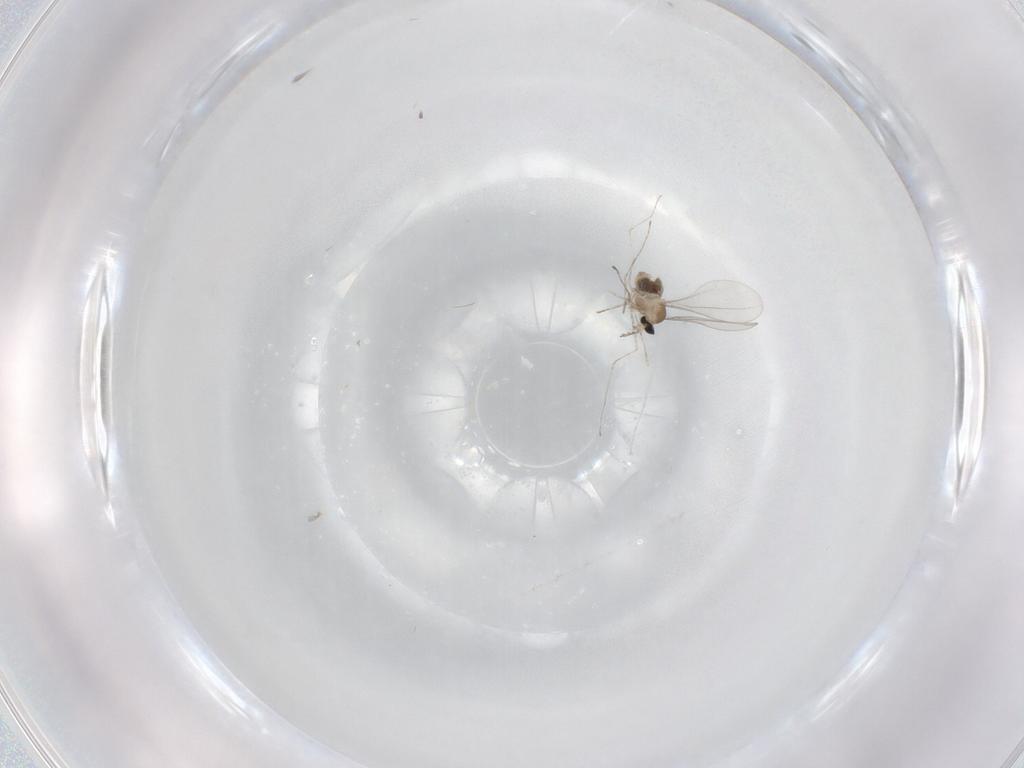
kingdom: Animalia
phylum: Arthropoda
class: Insecta
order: Diptera
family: Cecidomyiidae
